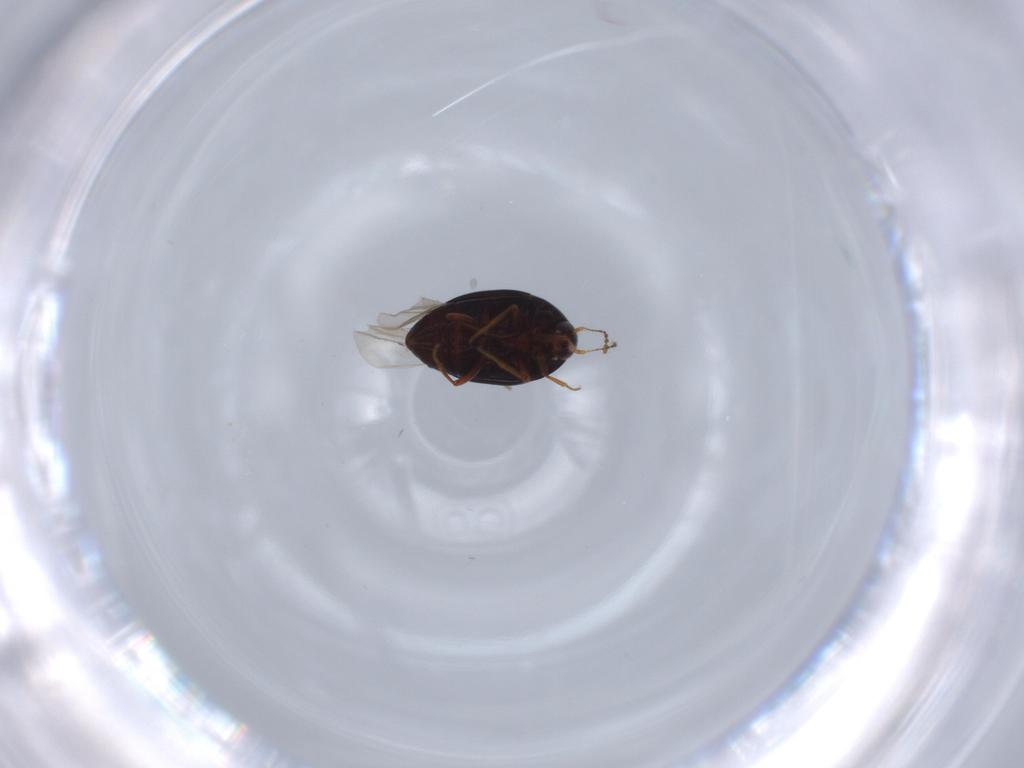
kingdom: Animalia
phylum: Arthropoda
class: Insecta
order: Coleoptera
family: Staphylinidae
